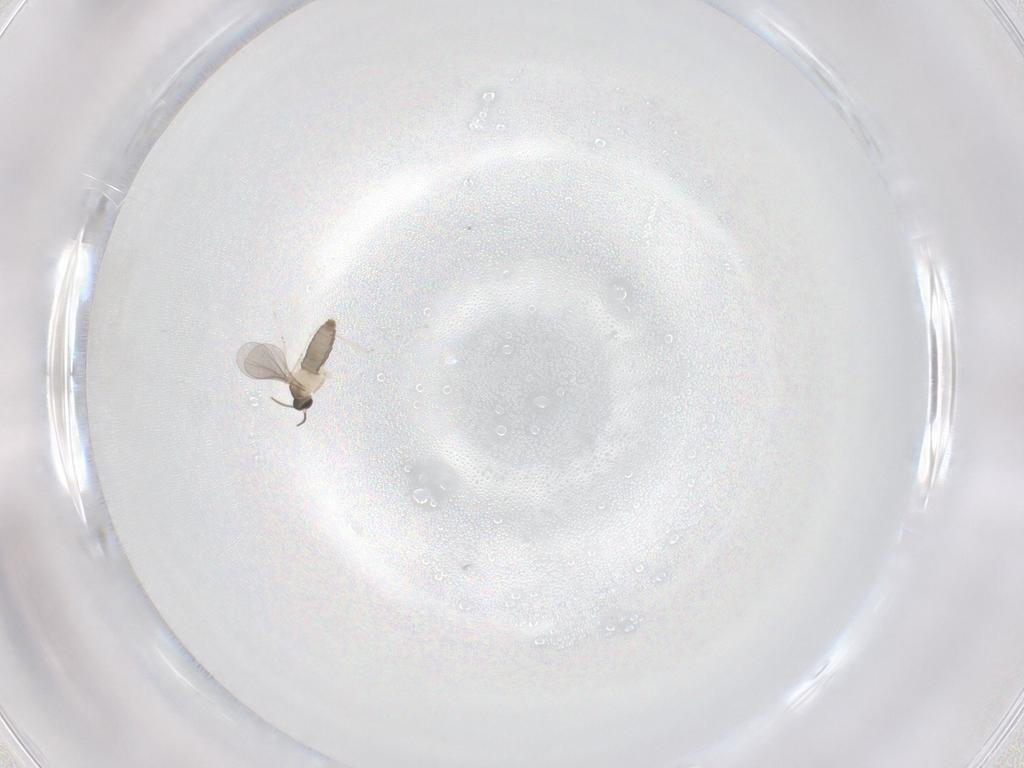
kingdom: Animalia
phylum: Arthropoda
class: Insecta
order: Diptera
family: Cecidomyiidae
